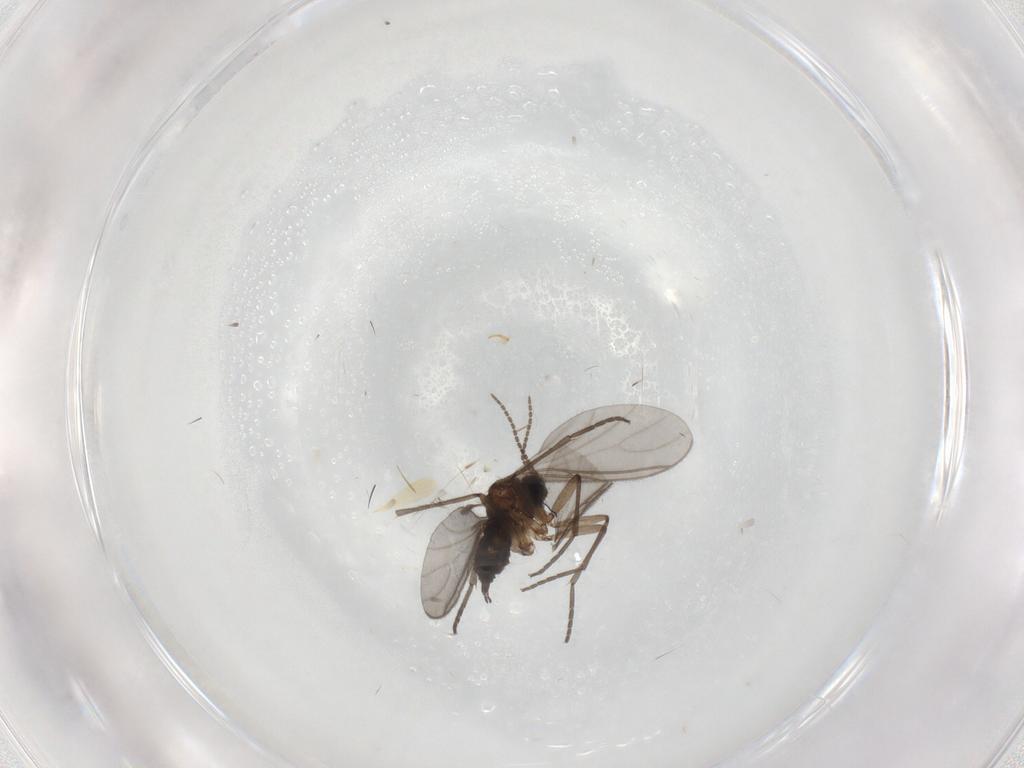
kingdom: Animalia
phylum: Arthropoda
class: Insecta
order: Diptera
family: Sciaridae
